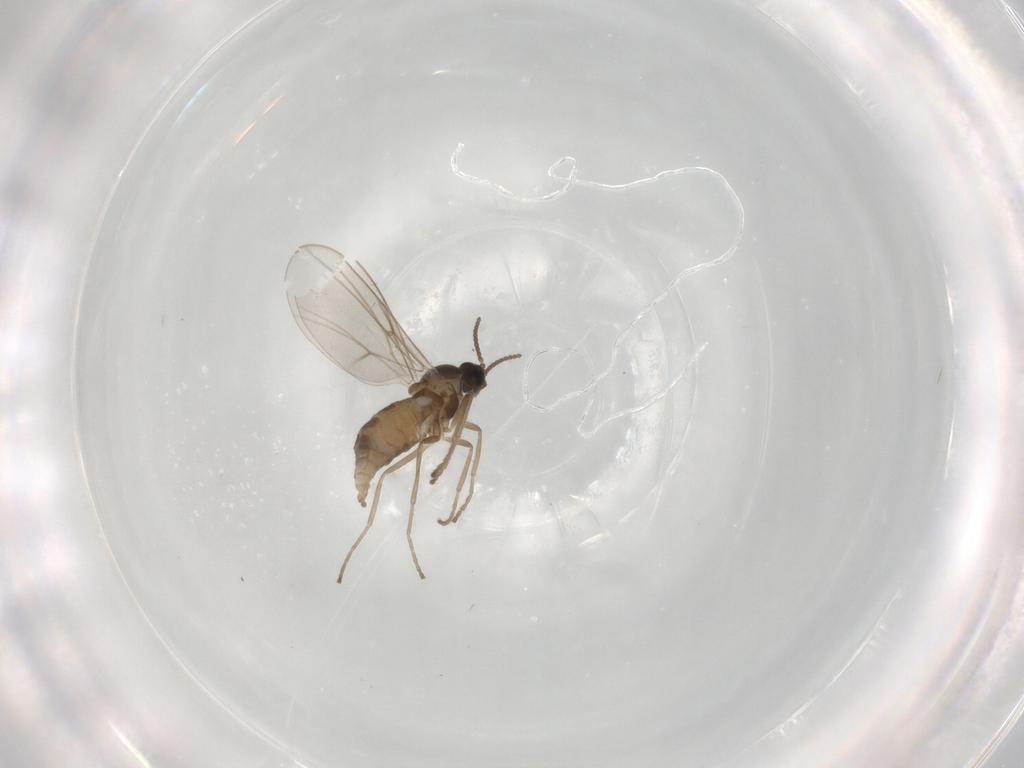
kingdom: Animalia
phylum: Arthropoda
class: Insecta
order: Diptera
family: Cecidomyiidae
